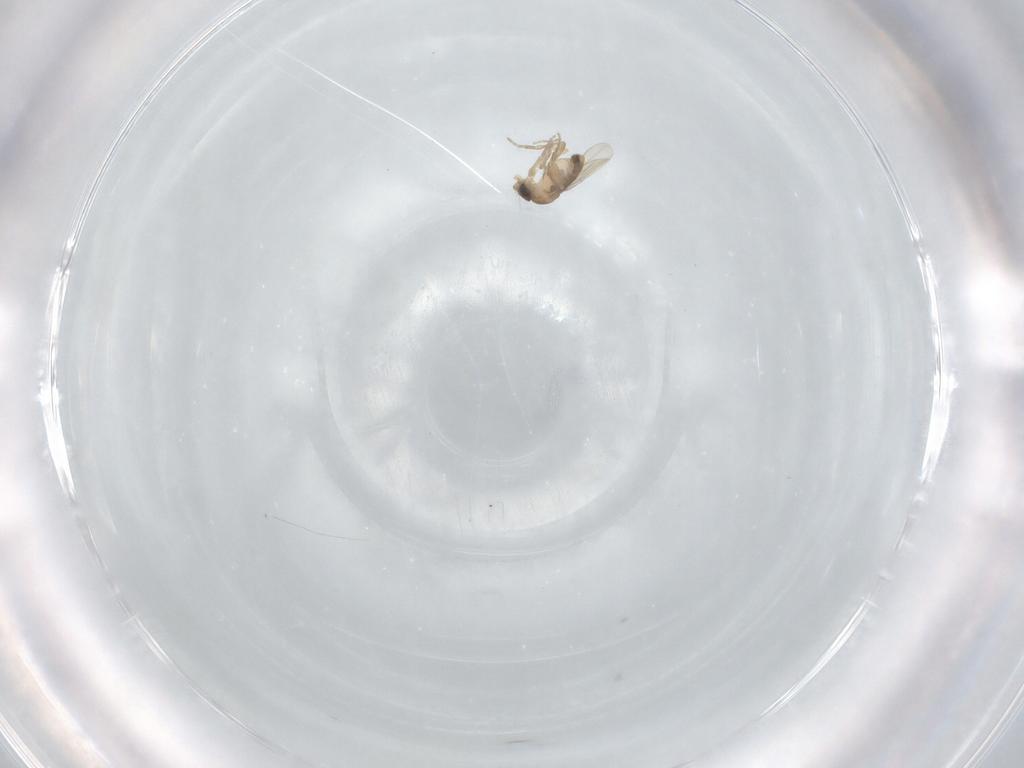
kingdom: Animalia
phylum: Arthropoda
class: Insecta
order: Diptera
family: Phoridae
